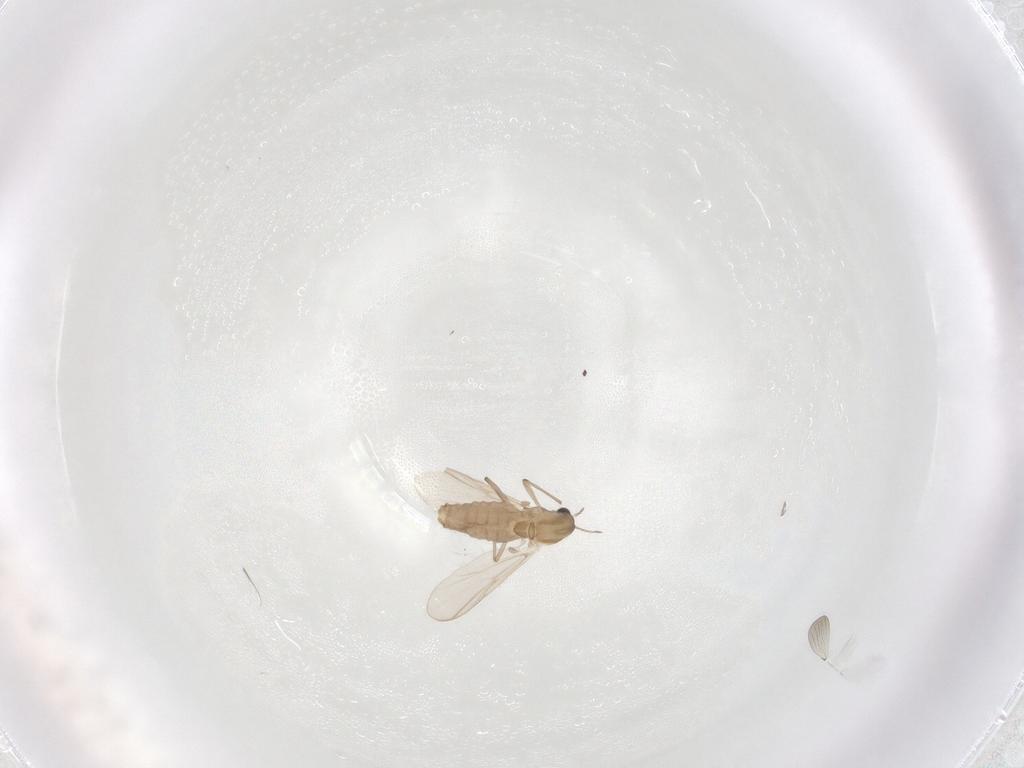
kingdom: Animalia
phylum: Arthropoda
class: Insecta
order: Diptera
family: Chironomidae
